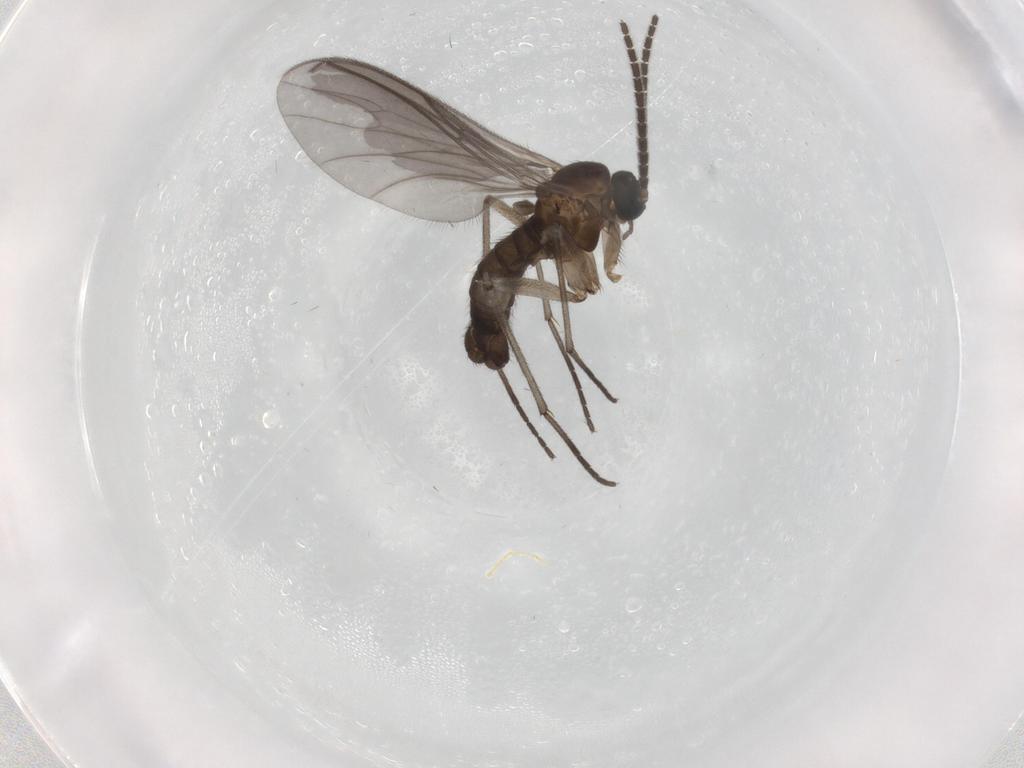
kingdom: Animalia
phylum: Arthropoda
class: Insecta
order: Diptera
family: Sciaridae
